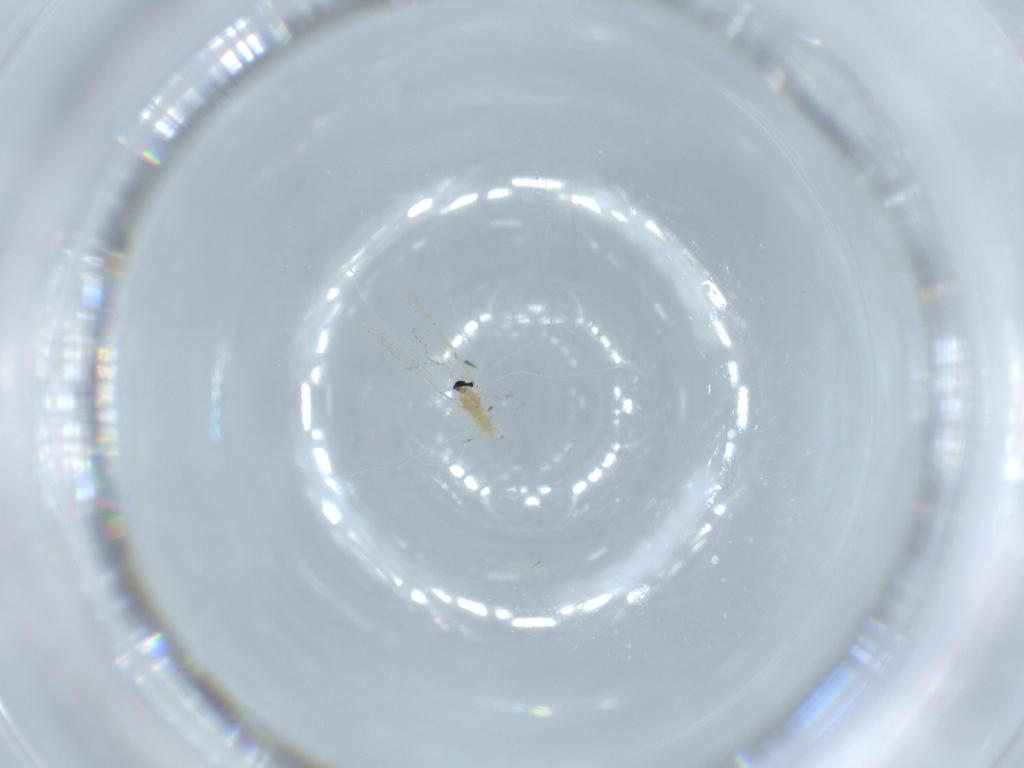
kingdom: Animalia
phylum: Arthropoda
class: Insecta
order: Diptera
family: Cecidomyiidae
